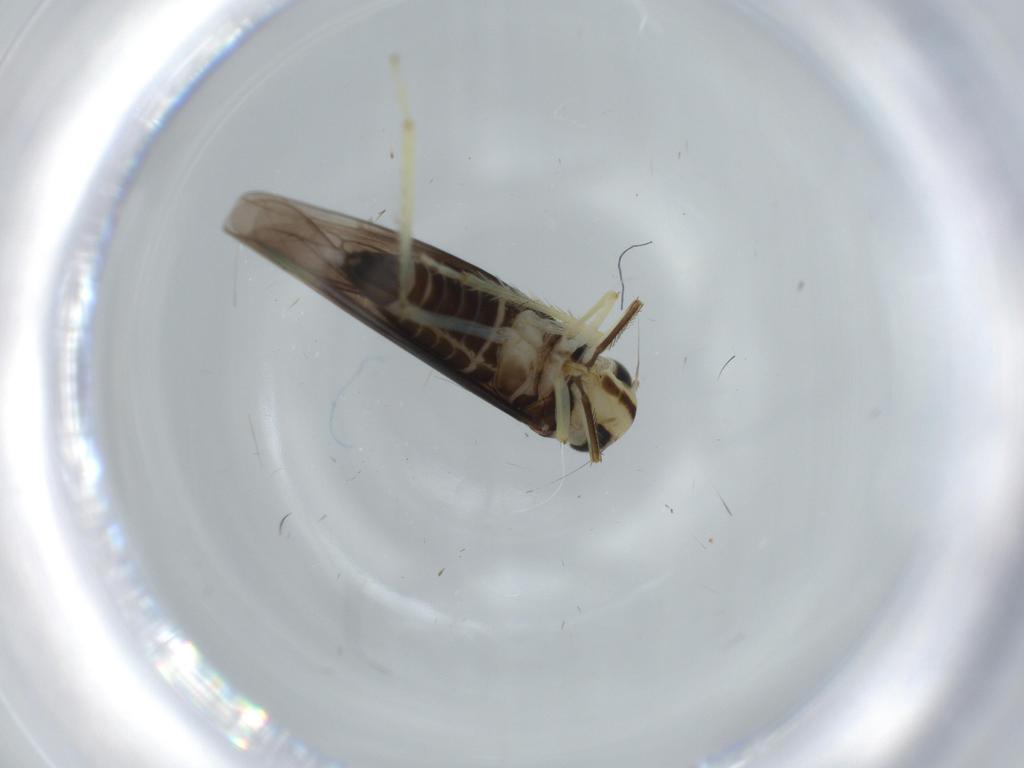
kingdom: Animalia
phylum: Arthropoda
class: Insecta
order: Hemiptera
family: Cicadellidae
